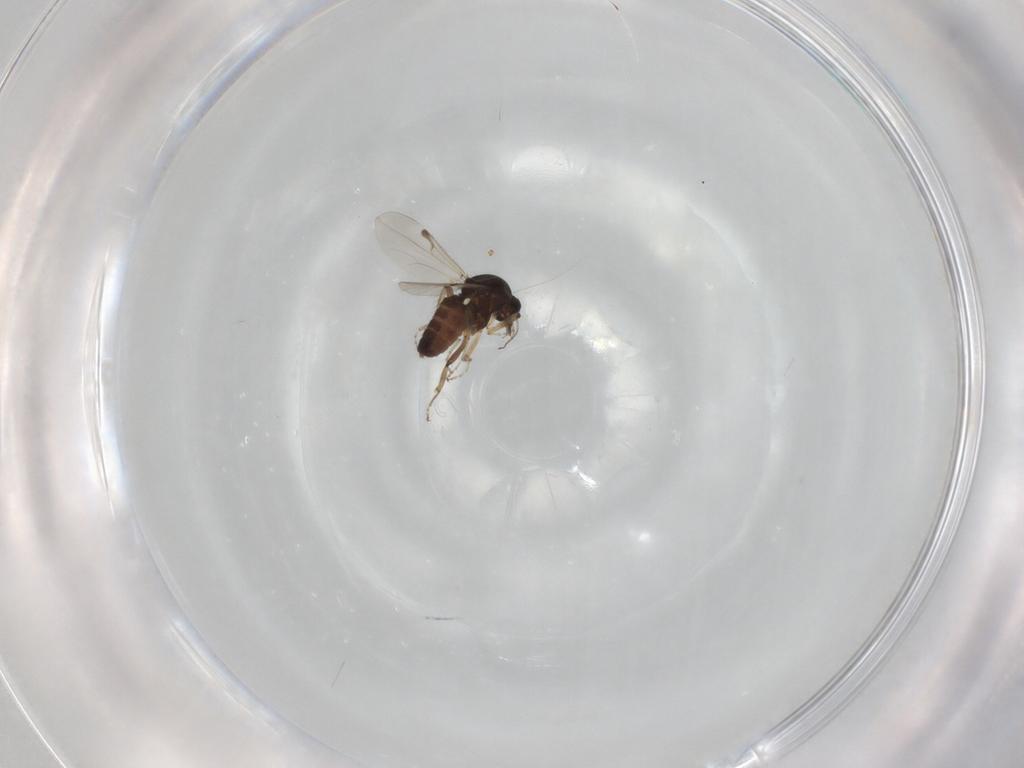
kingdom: Animalia
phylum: Arthropoda
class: Insecta
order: Diptera
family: Ceratopogonidae
